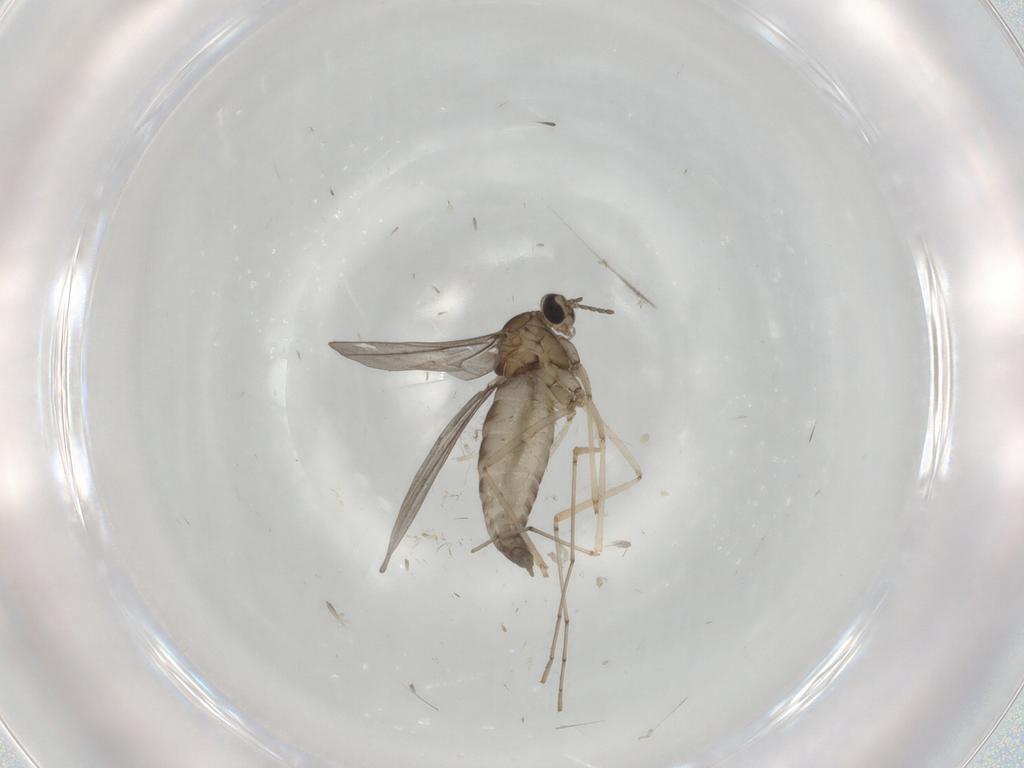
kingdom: Animalia
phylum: Arthropoda
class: Insecta
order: Diptera
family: Cecidomyiidae
